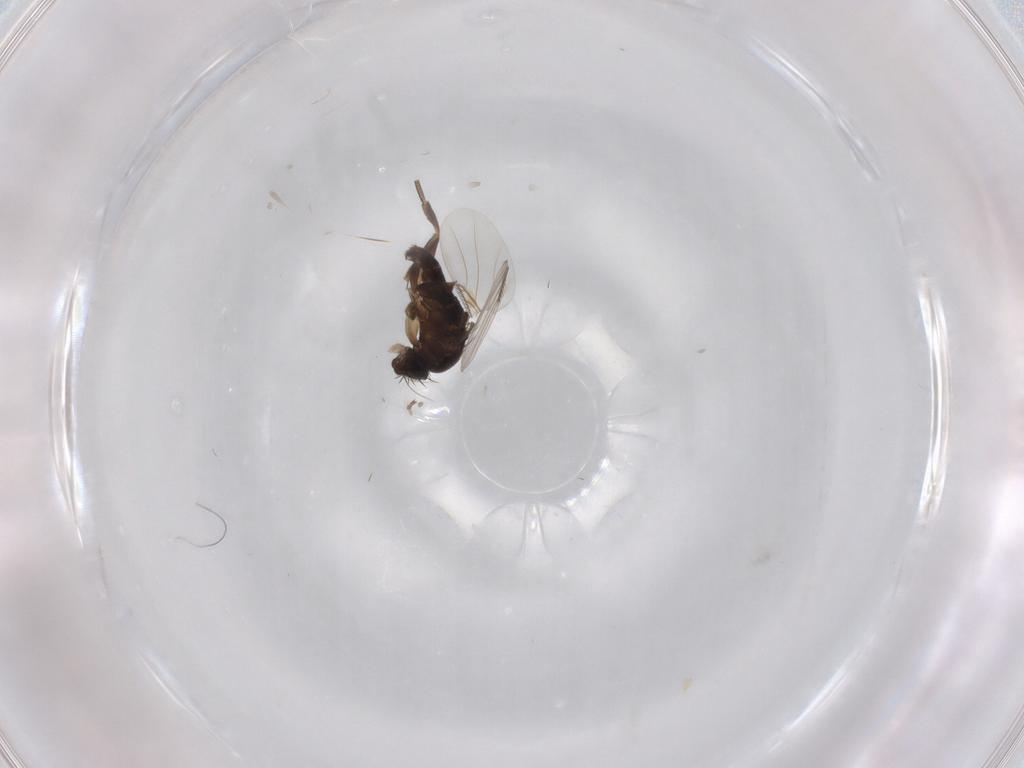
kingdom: Animalia
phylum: Arthropoda
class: Insecta
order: Diptera
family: Phoridae
